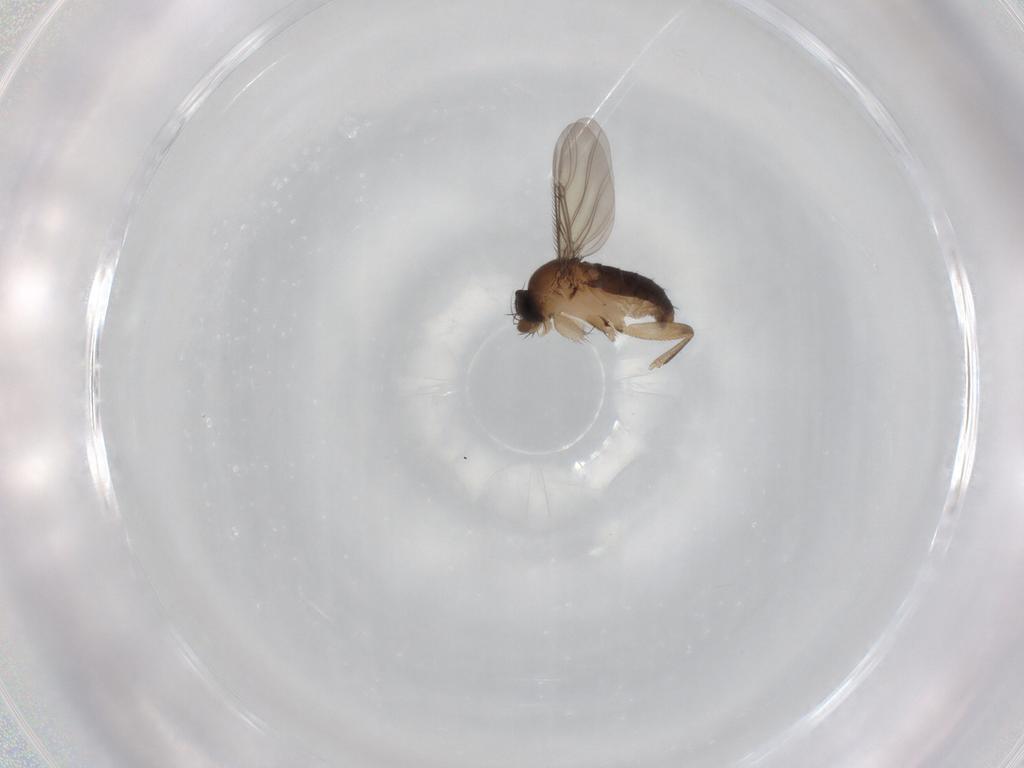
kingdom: Animalia
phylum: Arthropoda
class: Insecta
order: Diptera
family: Phoridae
